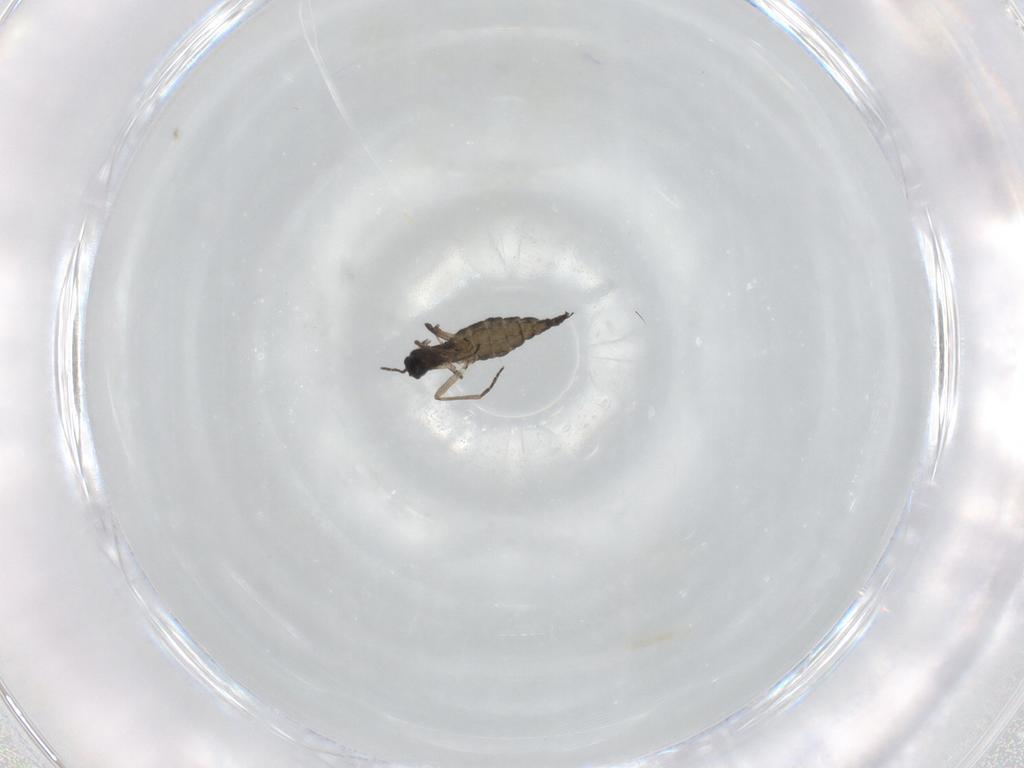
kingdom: Animalia
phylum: Arthropoda
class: Insecta
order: Diptera
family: Sciaridae
